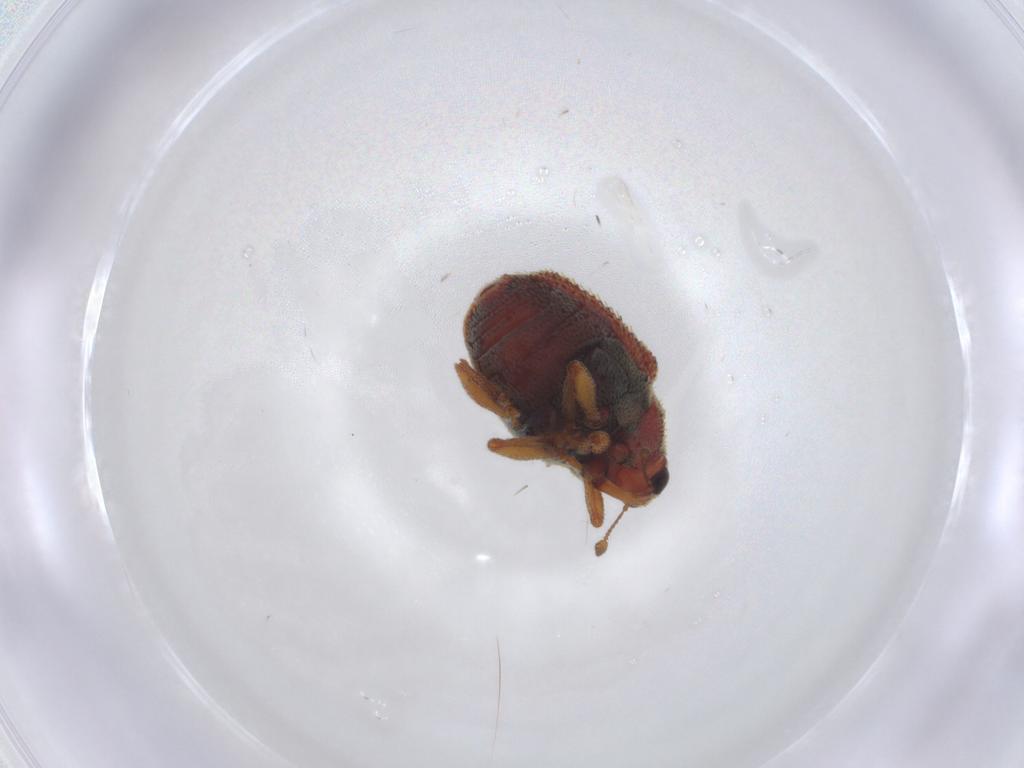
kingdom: Animalia
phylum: Arthropoda
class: Insecta
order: Coleoptera
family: Curculionidae
